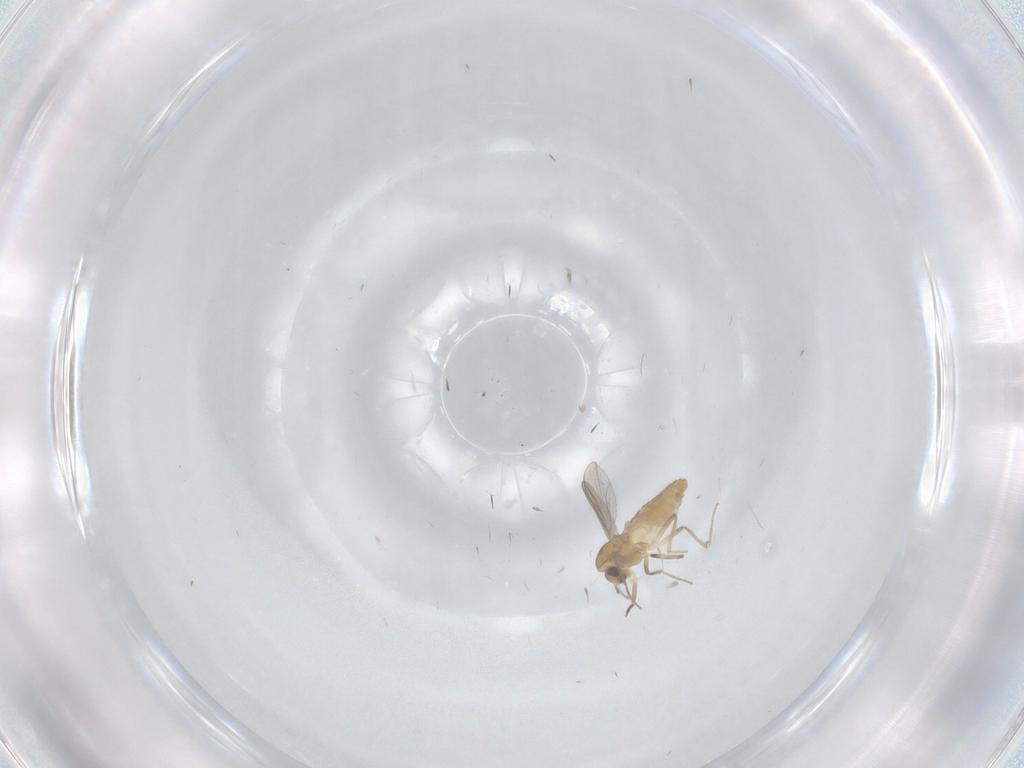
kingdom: Animalia
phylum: Arthropoda
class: Insecta
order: Diptera
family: Chironomidae
